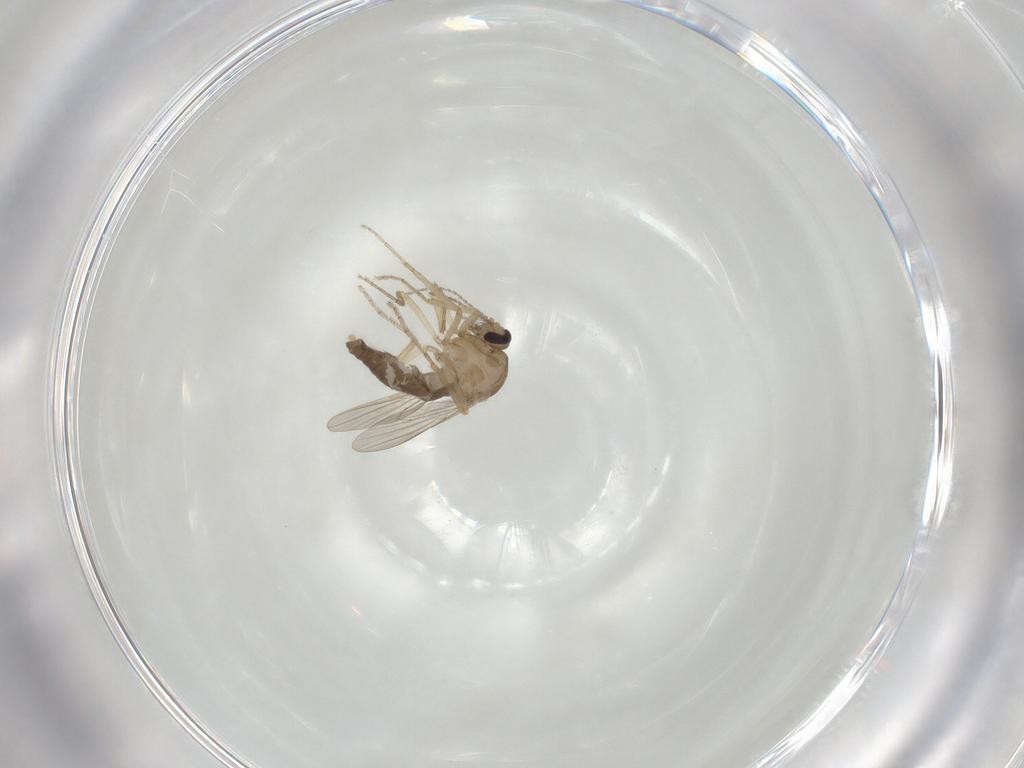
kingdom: Animalia
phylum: Arthropoda
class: Insecta
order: Diptera
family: Ceratopogonidae
